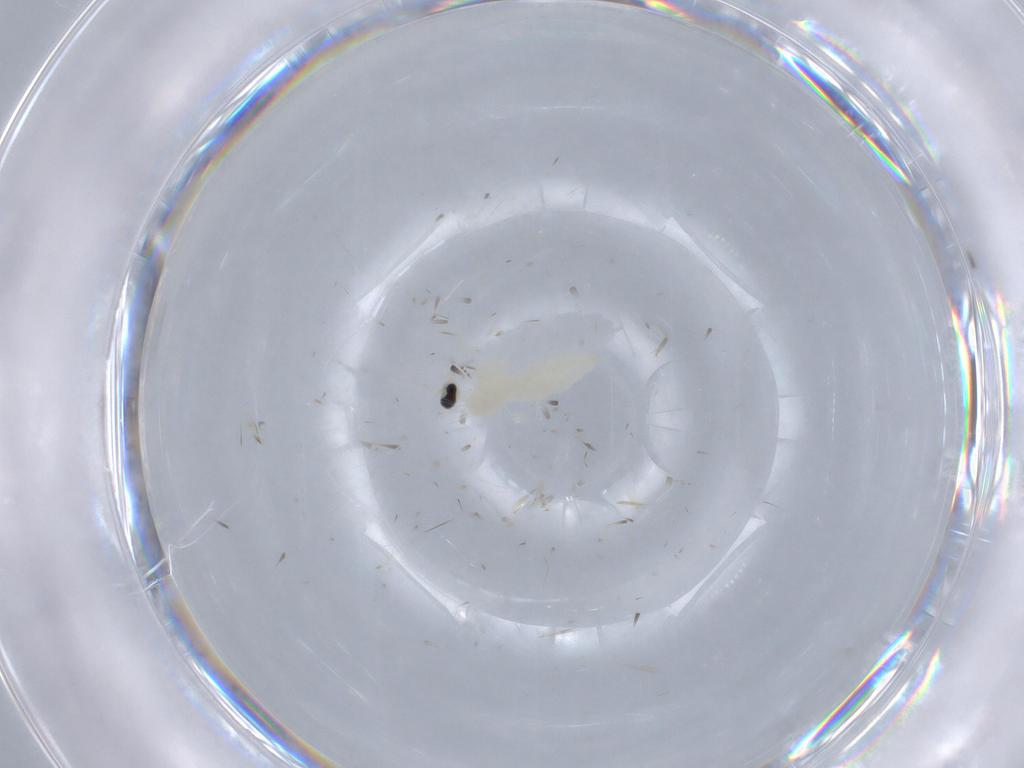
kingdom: Animalia
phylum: Arthropoda
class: Insecta
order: Diptera
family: Cecidomyiidae
